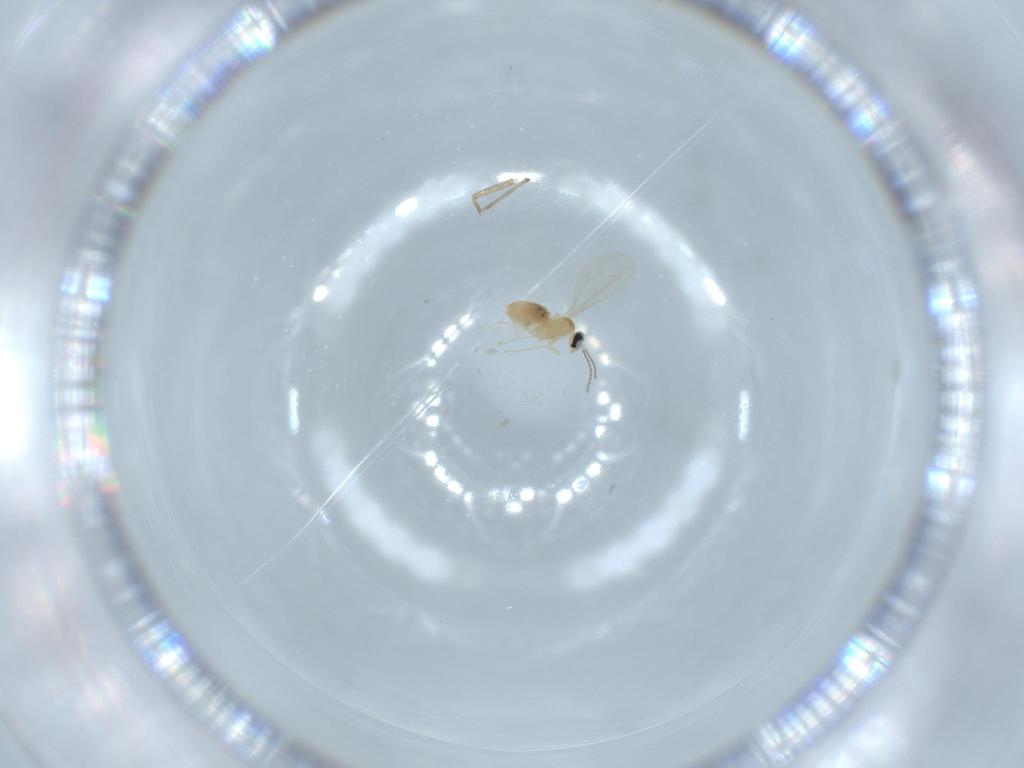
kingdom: Animalia
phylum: Arthropoda
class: Insecta
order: Diptera
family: Cecidomyiidae
